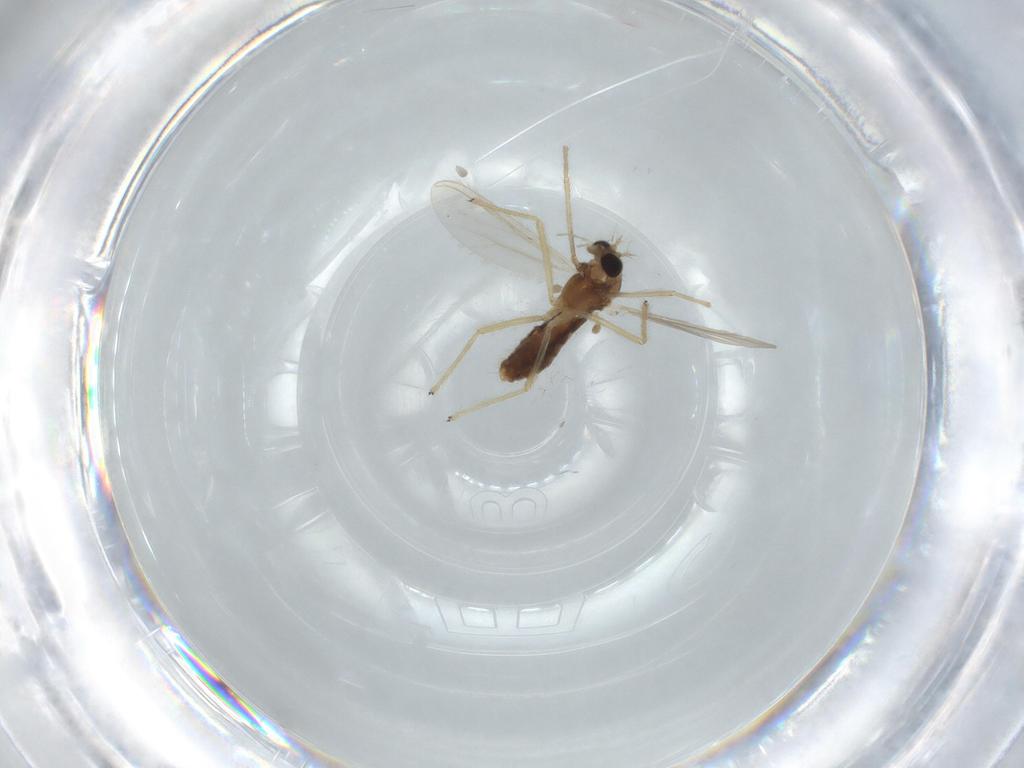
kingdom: Animalia
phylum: Arthropoda
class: Insecta
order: Diptera
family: Chironomidae
